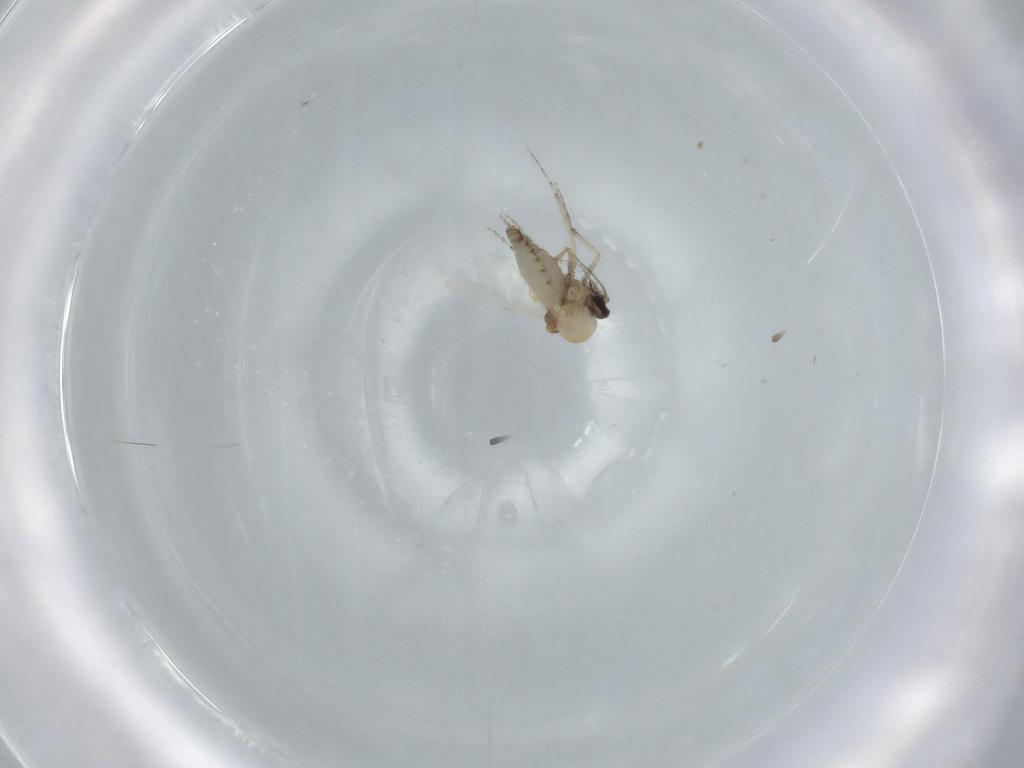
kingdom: Animalia
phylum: Arthropoda
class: Insecta
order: Diptera
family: Ceratopogonidae
